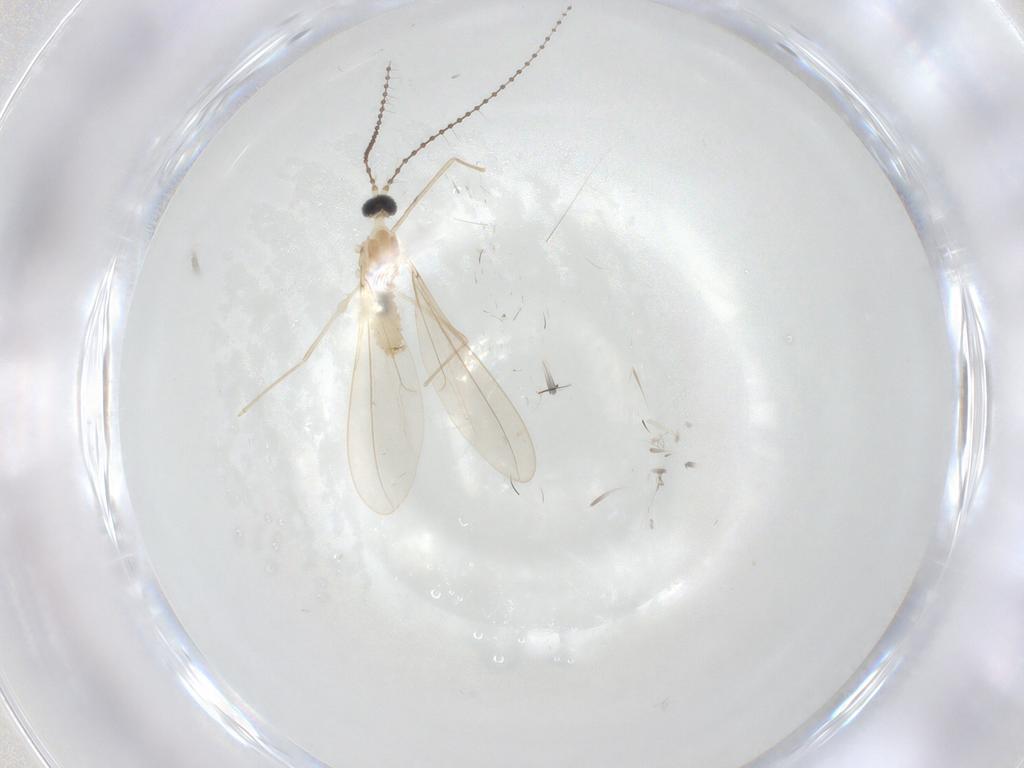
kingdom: Animalia
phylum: Arthropoda
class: Insecta
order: Diptera
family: Cecidomyiidae
